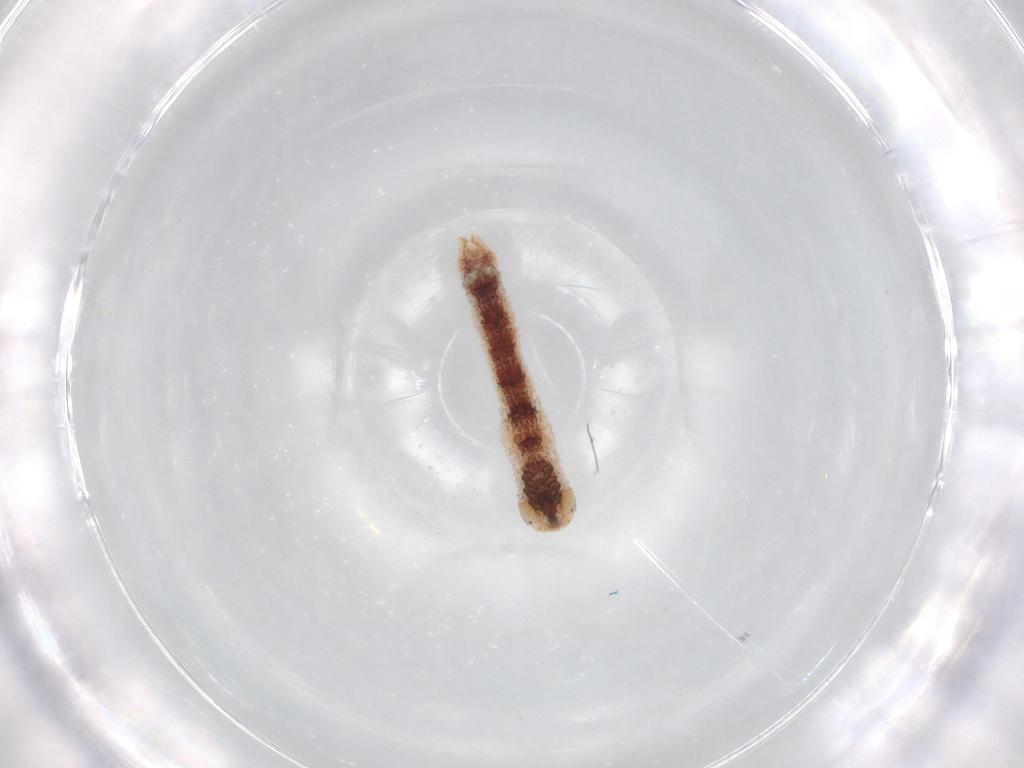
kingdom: Animalia
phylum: Arthropoda
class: Insecta
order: Lepidoptera
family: Geometridae
